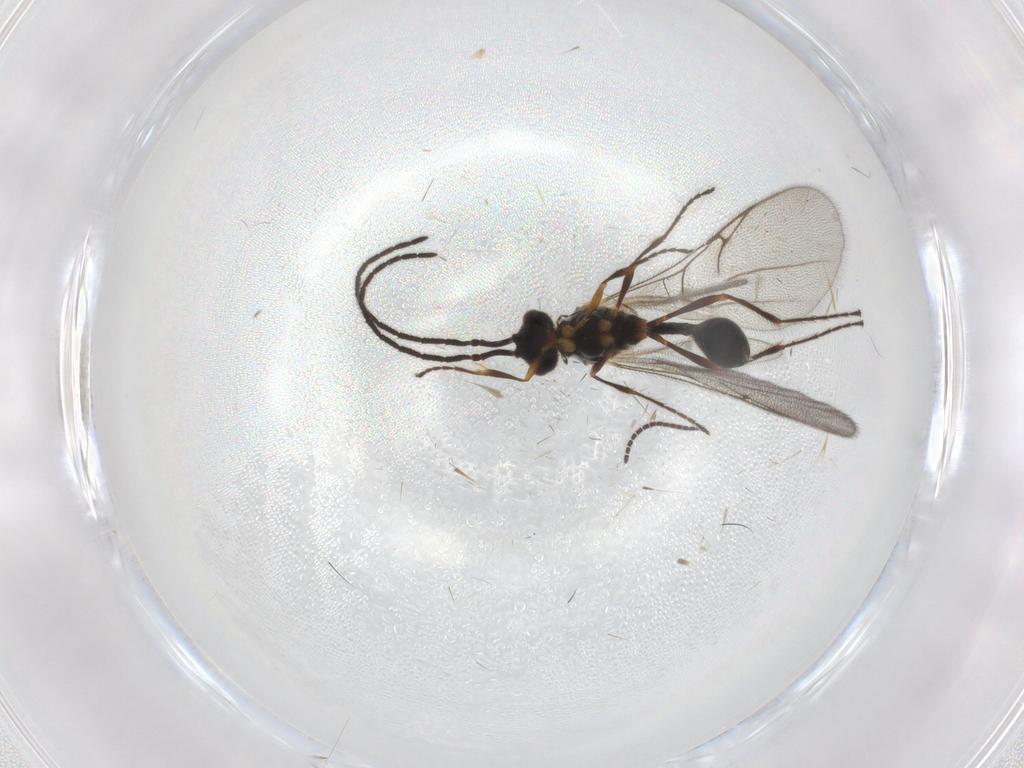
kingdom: Animalia
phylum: Arthropoda
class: Insecta
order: Hymenoptera
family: Diapriidae
